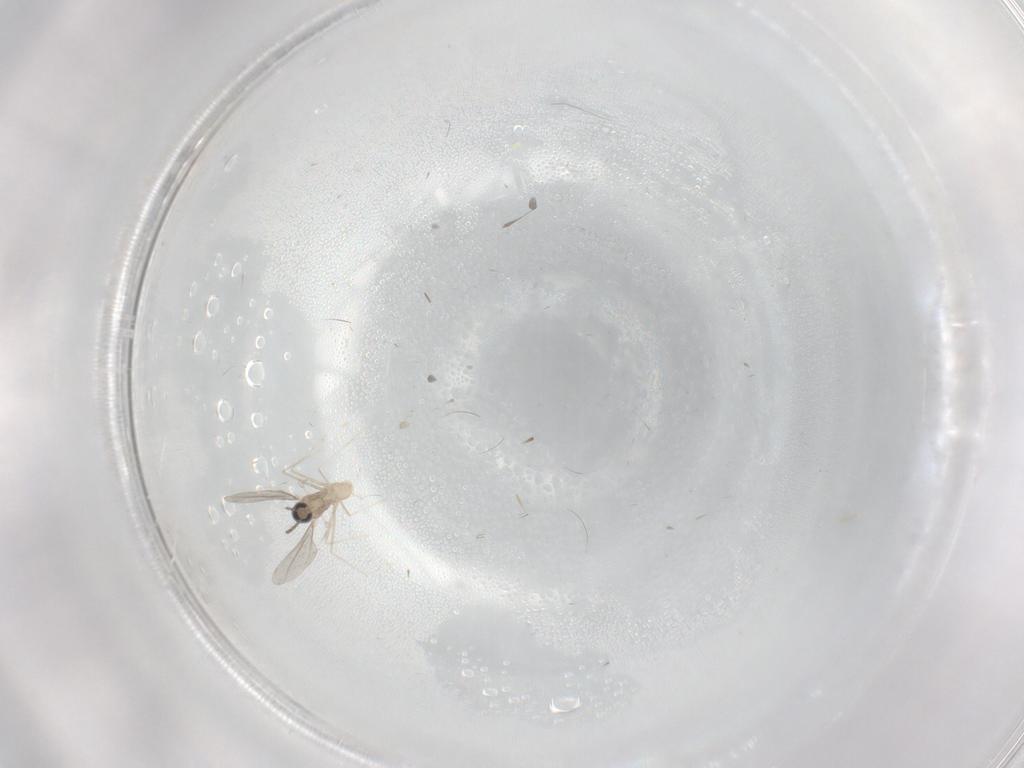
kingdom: Animalia
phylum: Arthropoda
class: Insecta
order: Diptera
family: Cecidomyiidae
